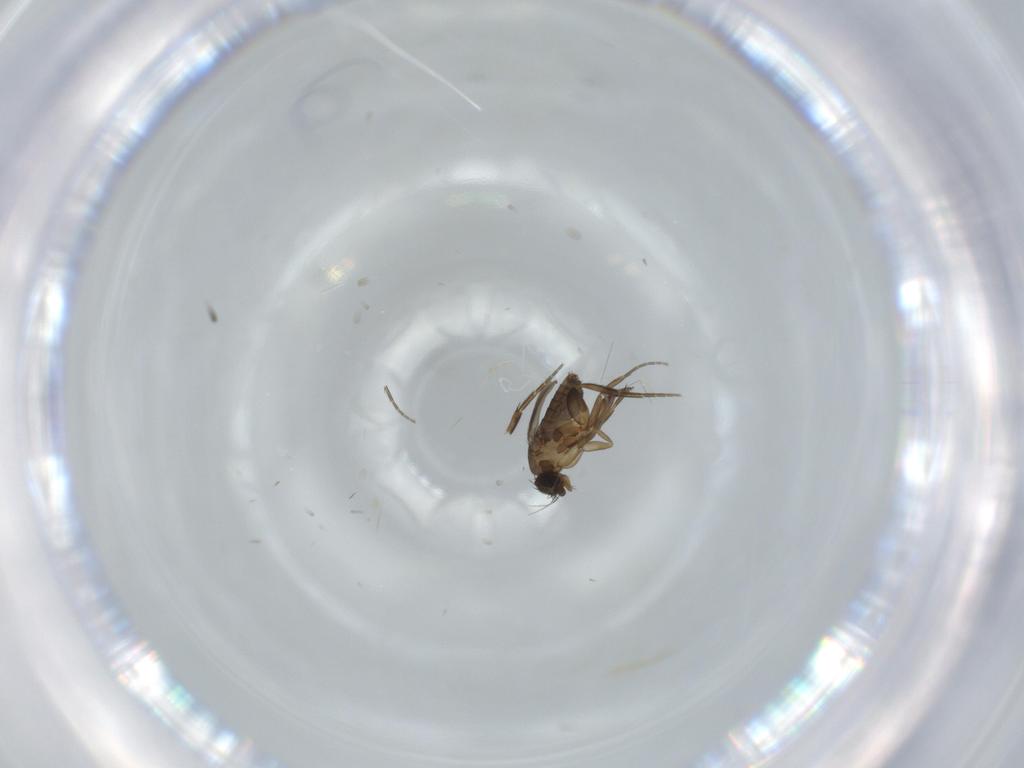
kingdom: Animalia
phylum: Arthropoda
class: Insecta
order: Diptera
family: Phoridae
